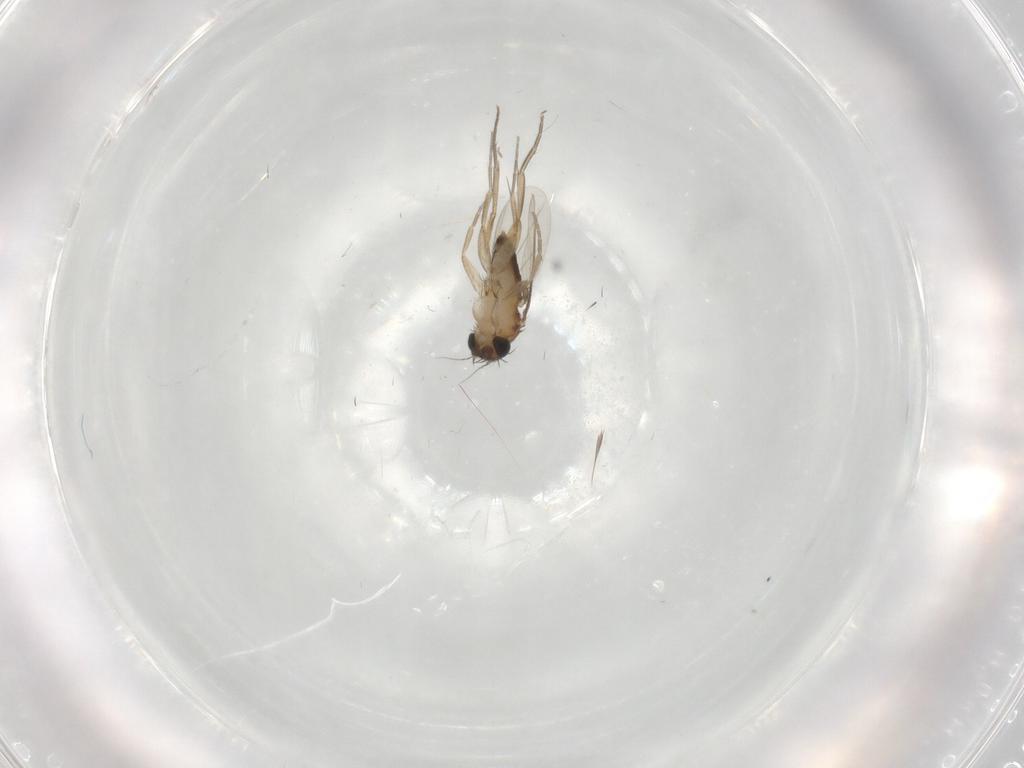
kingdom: Animalia
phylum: Arthropoda
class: Insecta
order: Diptera
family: Phoridae
